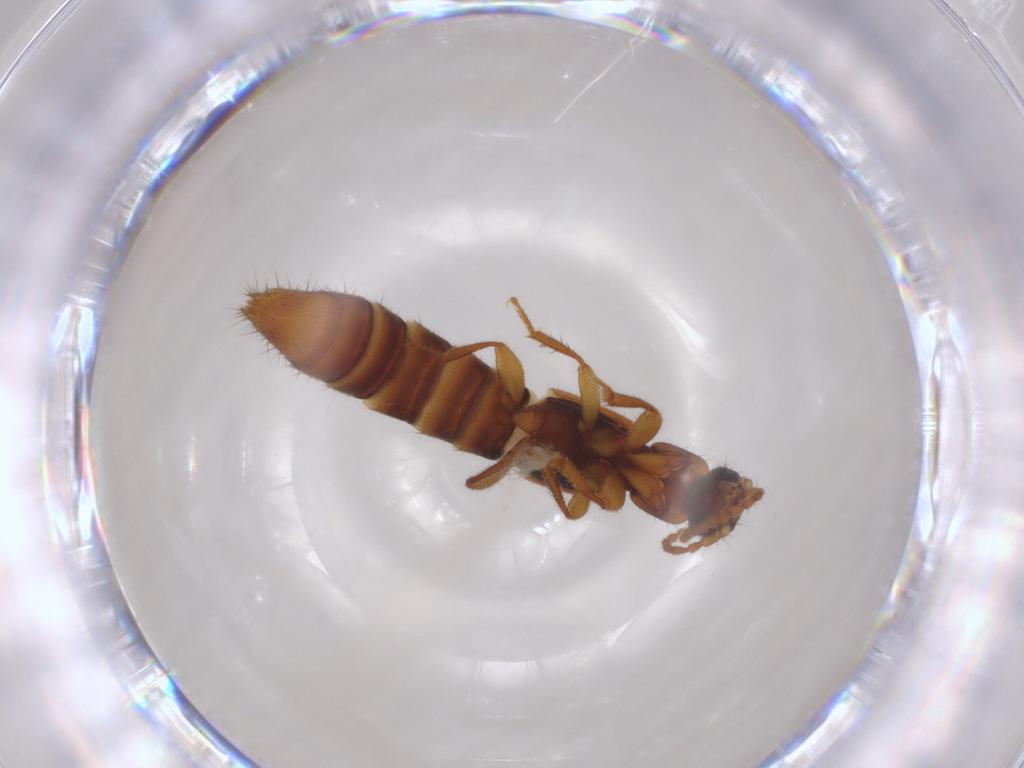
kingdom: Animalia
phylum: Arthropoda
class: Insecta
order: Coleoptera
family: Staphylinidae
